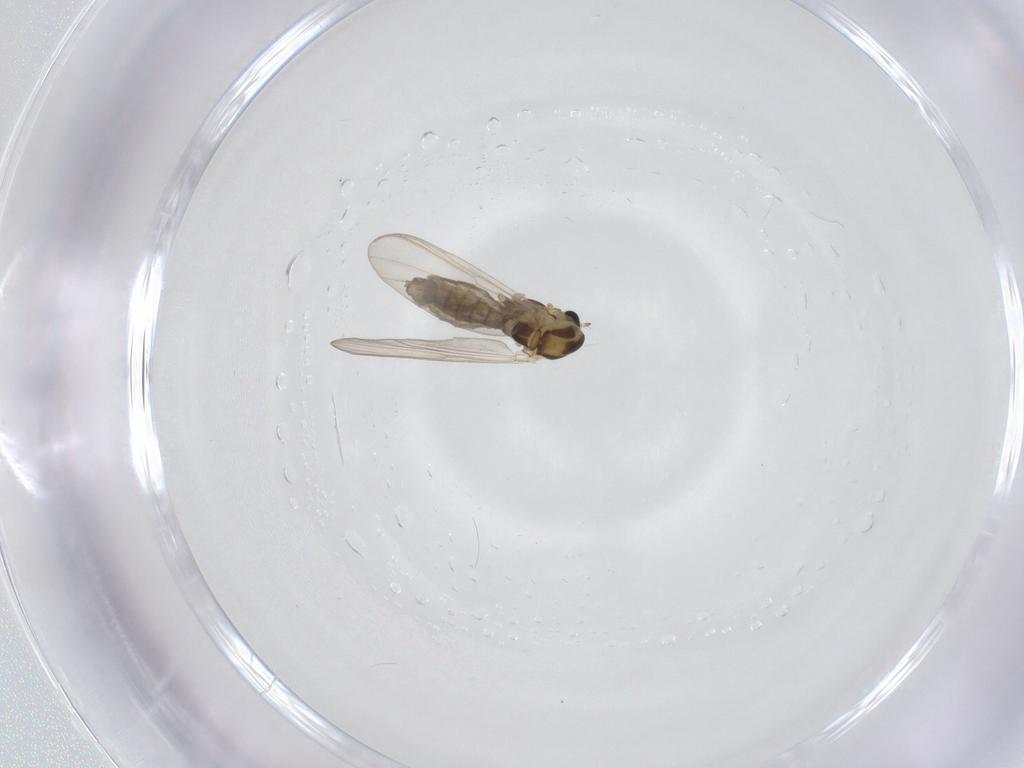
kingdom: Animalia
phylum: Arthropoda
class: Insecta
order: Diptera
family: Chironomidae
